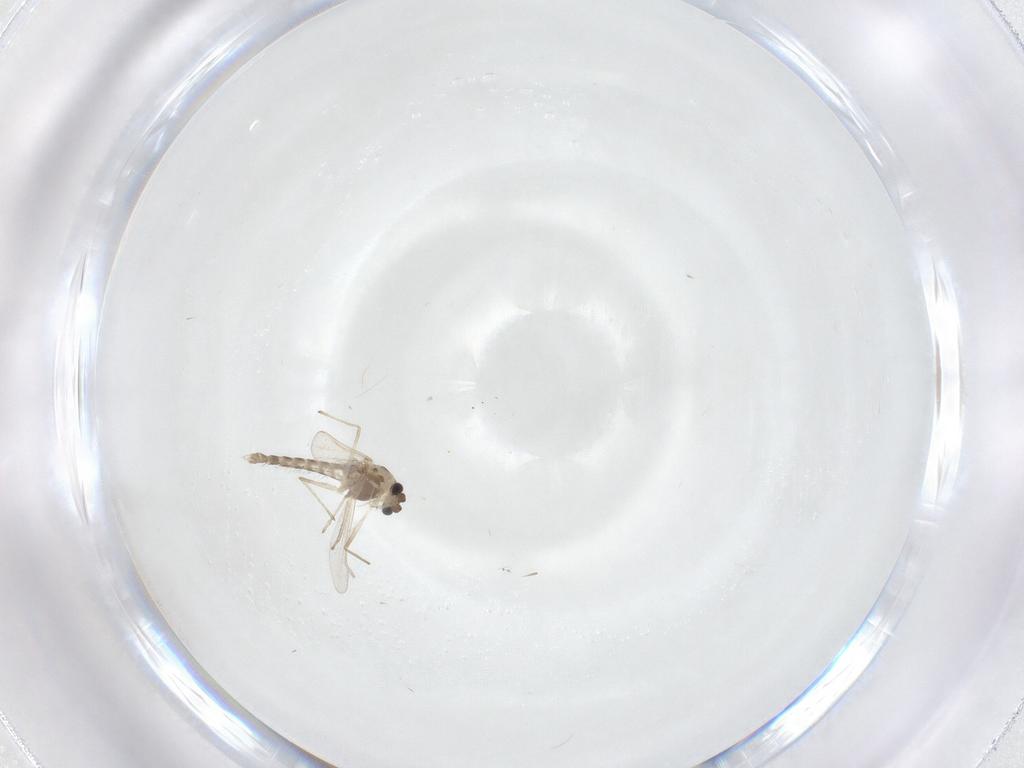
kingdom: Animalia
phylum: Arthropoda
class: Insecta
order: Diptera
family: Chironomidae
